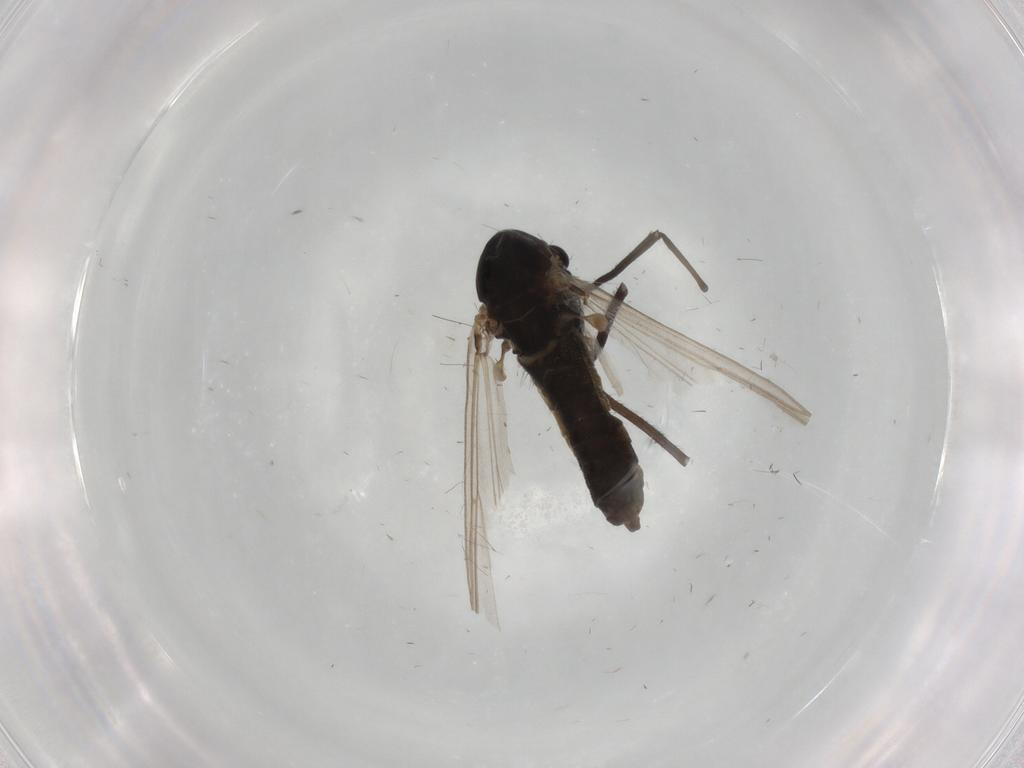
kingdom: Animalia
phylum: Arthropoda
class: Insecta
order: Diptera
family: Chironomidae
